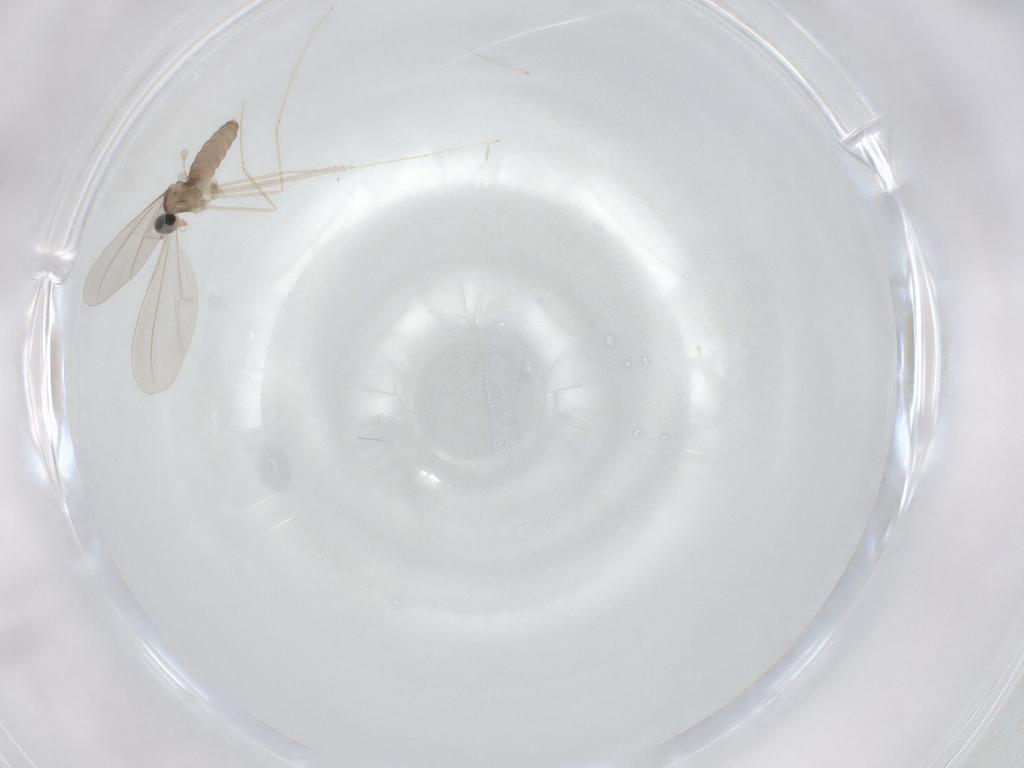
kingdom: Animalia
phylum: Arthropoda
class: Insecta
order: Diptera
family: Cecidomyiidae
